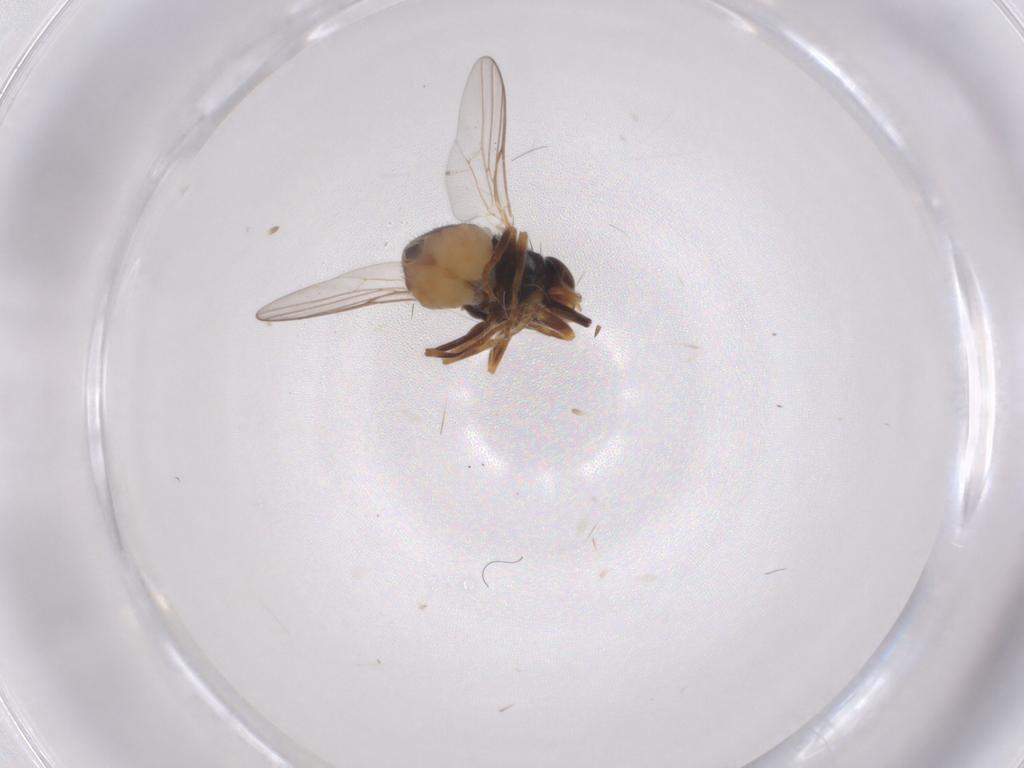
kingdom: Animalia
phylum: Arthropoda
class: Insecta
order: Diptera
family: Chloropidae
